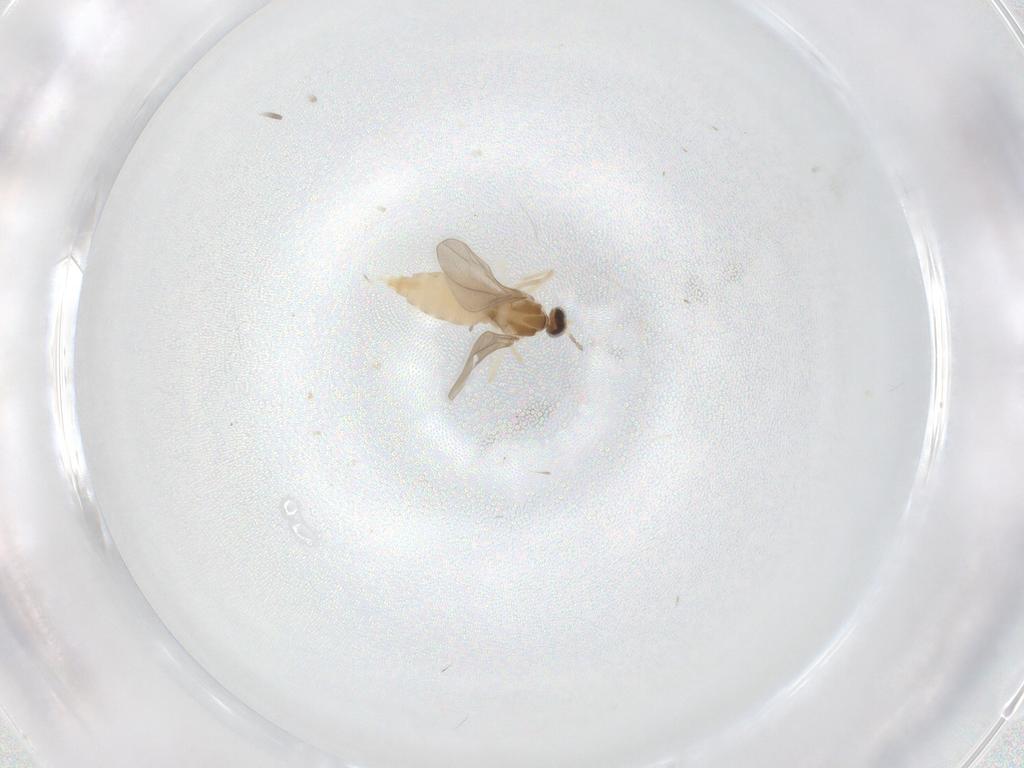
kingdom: Animalia
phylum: Arthropoda
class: Insecta
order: Diptera
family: Cecidomyiidae
